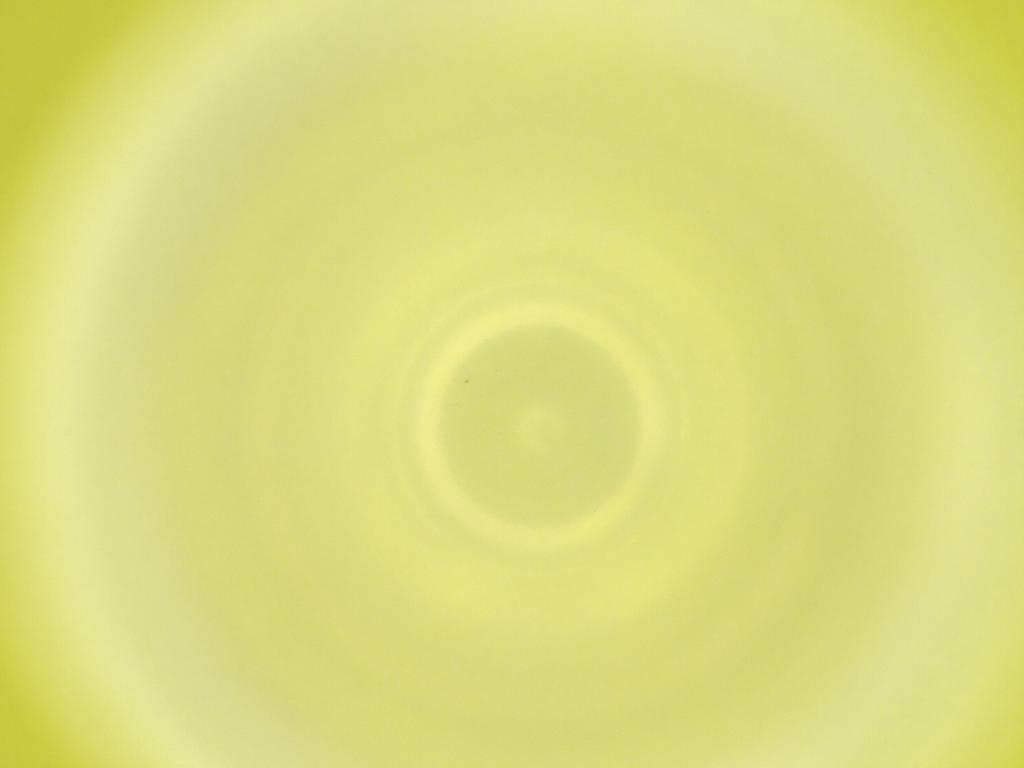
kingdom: Animalia
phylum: Arthropoda
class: Insecta
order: Diptera
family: Cecidomyiidae
